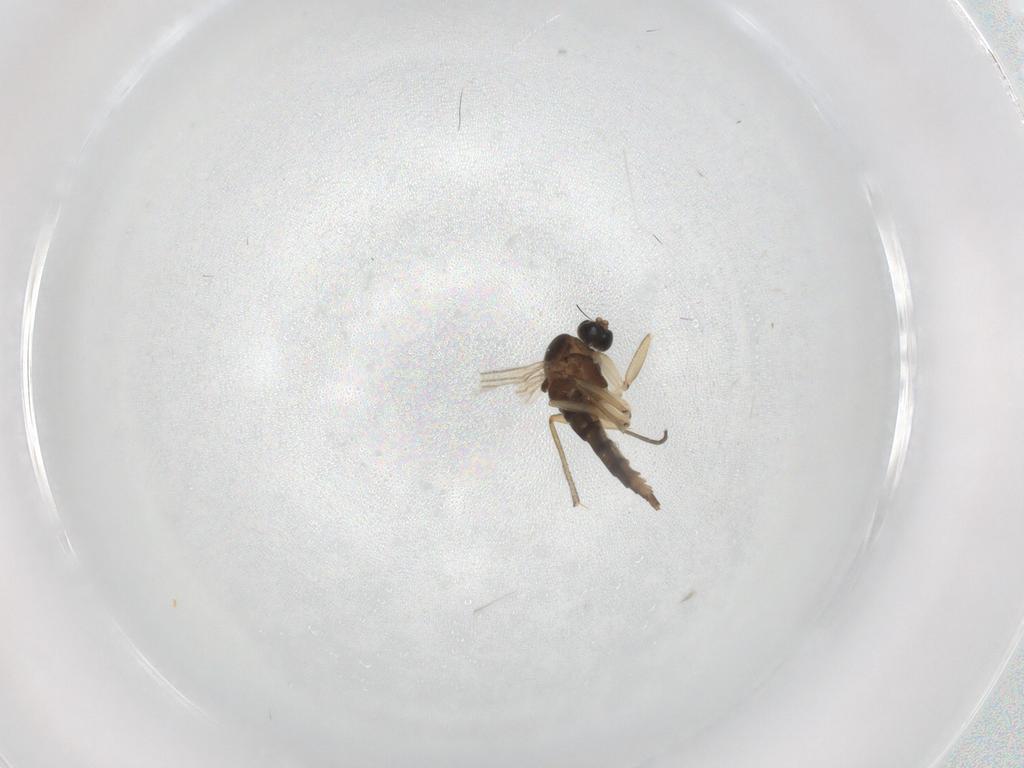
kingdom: Animalia
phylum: Arthropoda
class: Insecta
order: Diptera
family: Sciaridae
